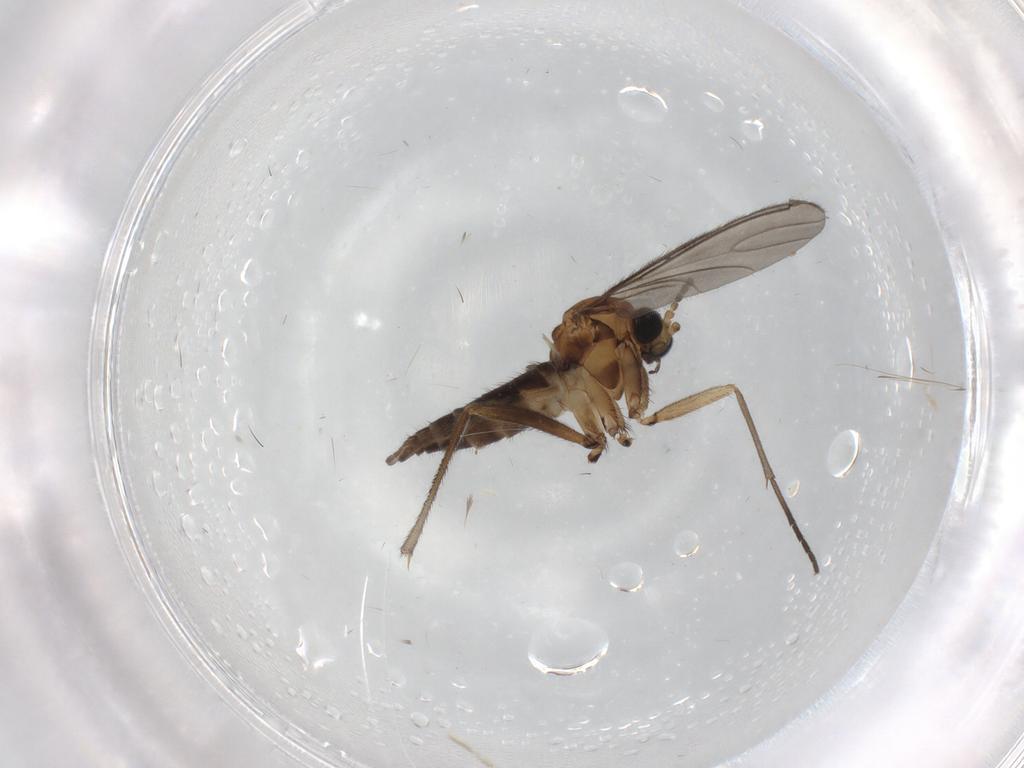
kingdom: Animalia
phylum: Arthropoda
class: Insecta
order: Diptera
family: Sciaridae
